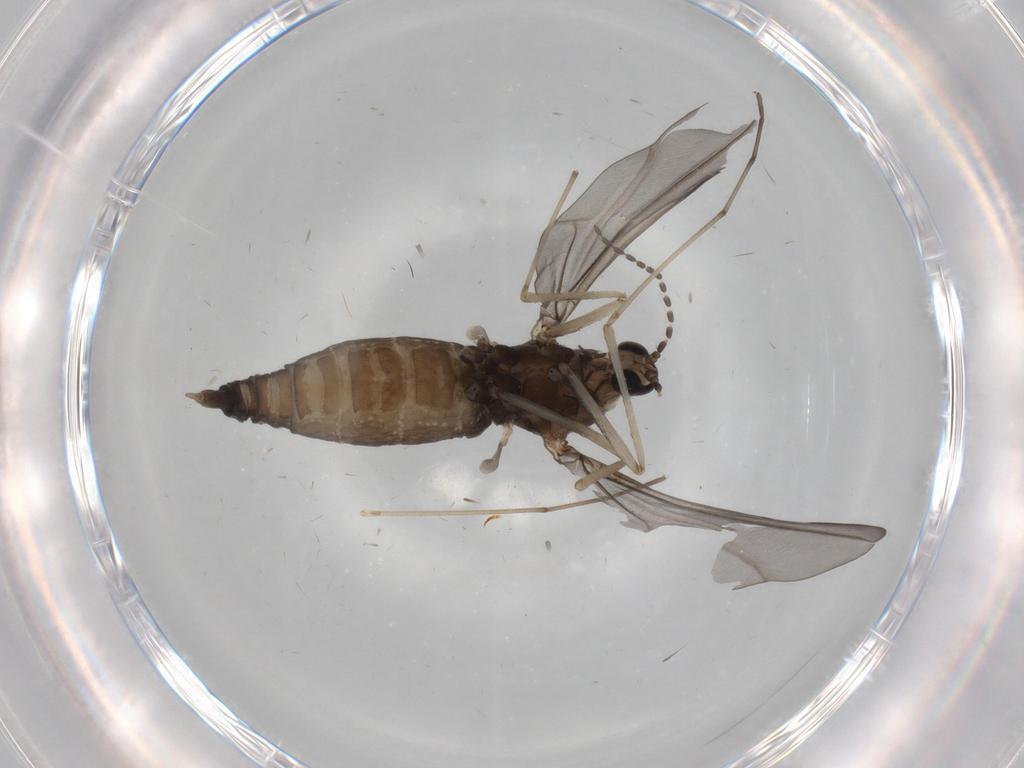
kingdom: Animalia
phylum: Arthropoda
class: Insecta
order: Diptera
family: Cecidomyiidae
